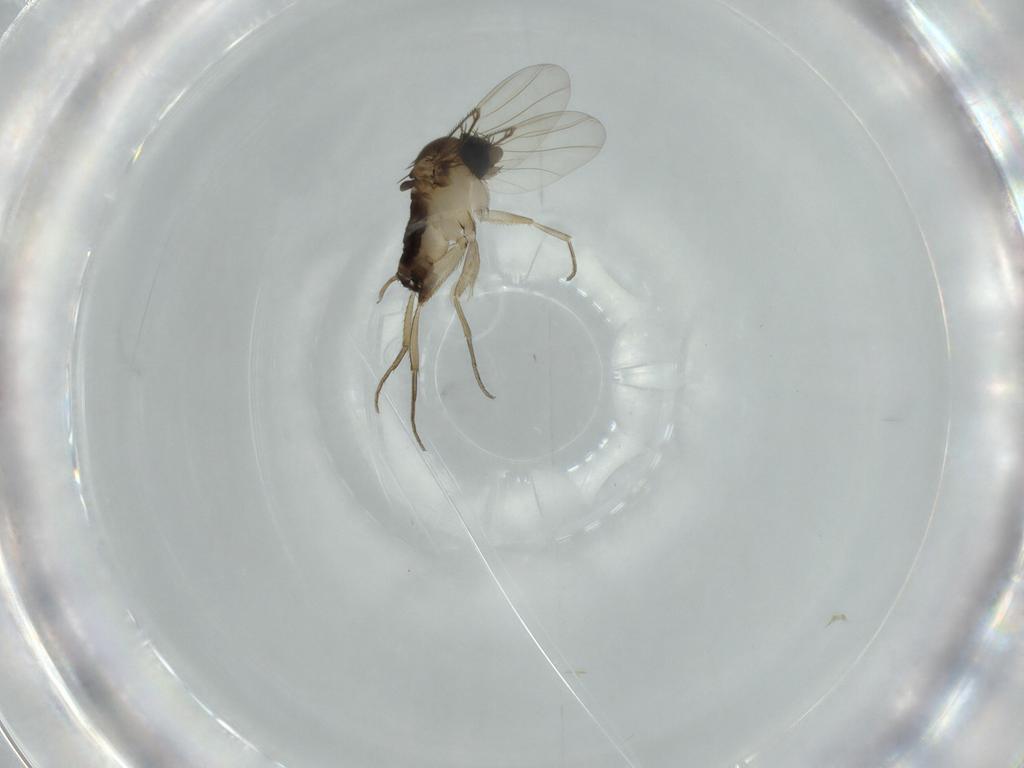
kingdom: Animalia
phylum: Arthropoda
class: Insecta
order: Diptera
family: Phoridae
